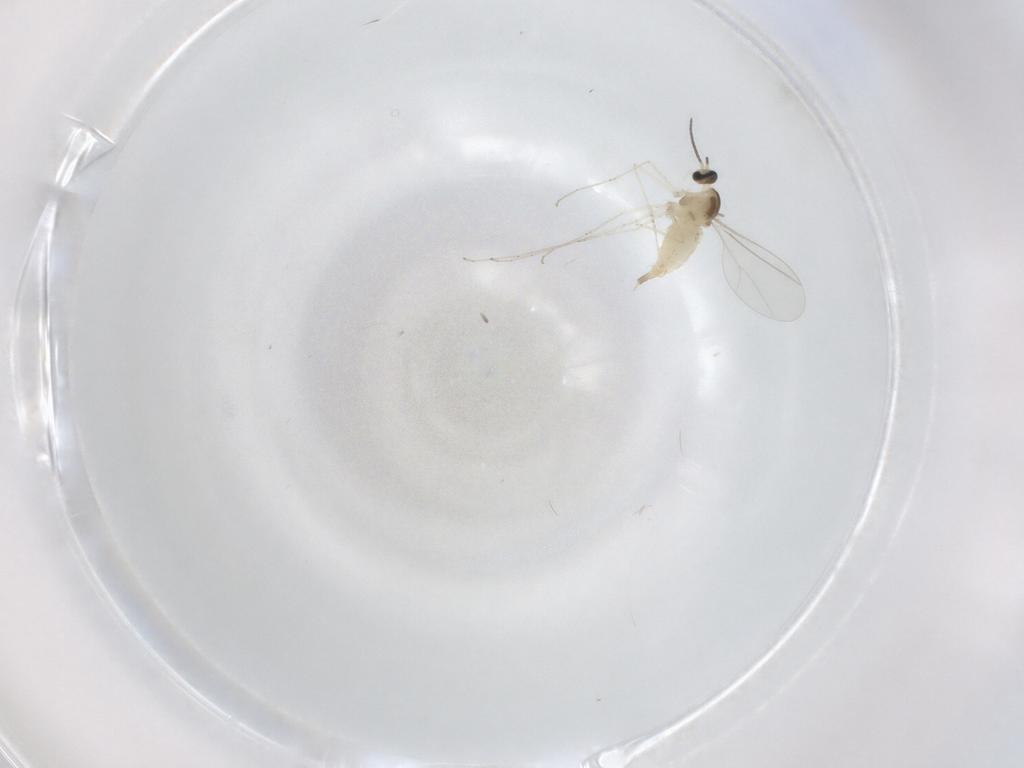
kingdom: Animalia
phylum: Arthropoda
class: Insecta
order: Diptera
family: Cecidomyiidae
